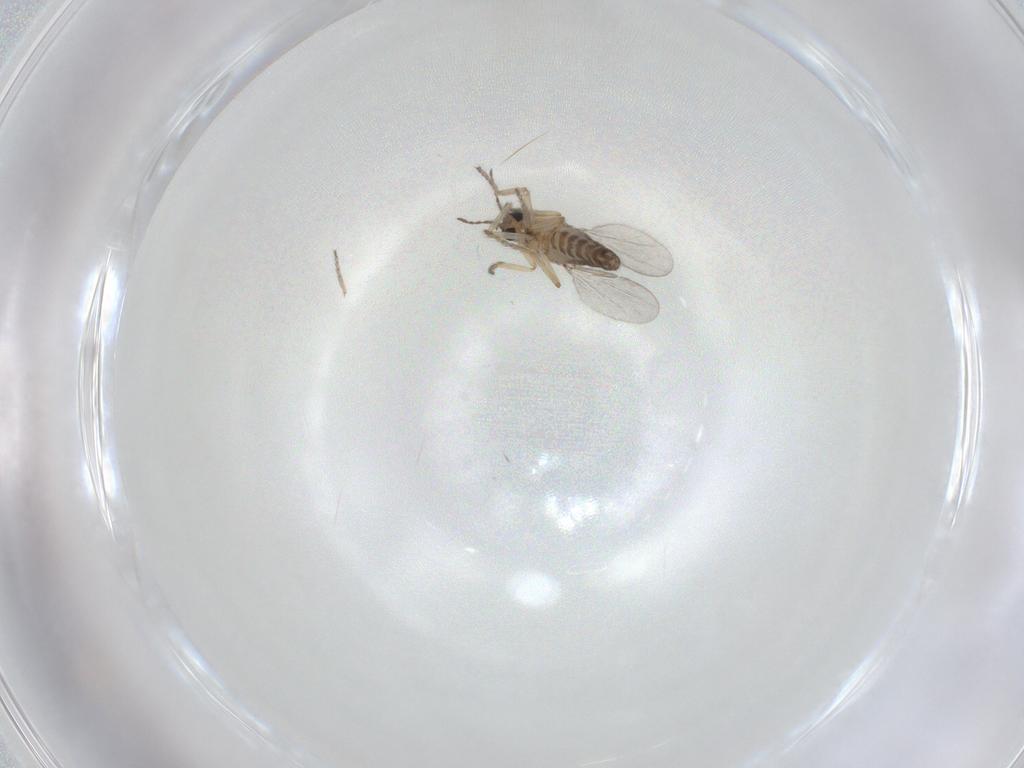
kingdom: Animalia
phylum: Arthropoda
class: Insecta
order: Diptera
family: Ceratopogonidae
